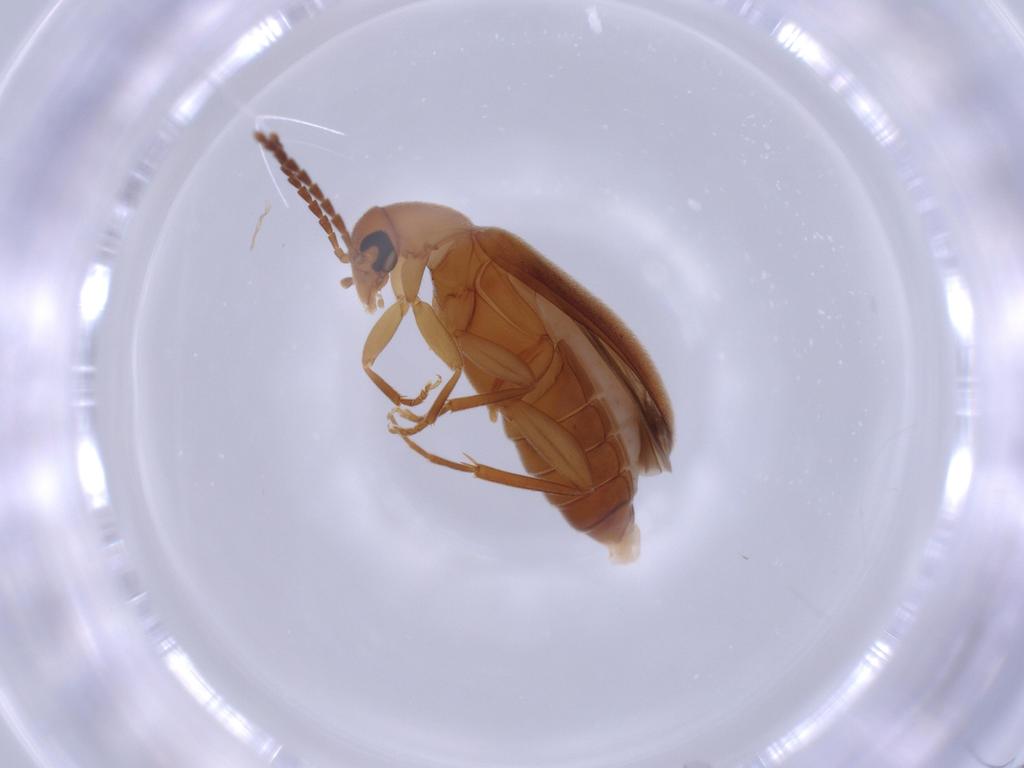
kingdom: Animalia
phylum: Arthropoda
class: Insecta
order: Coleoptera
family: Scraptiidae
